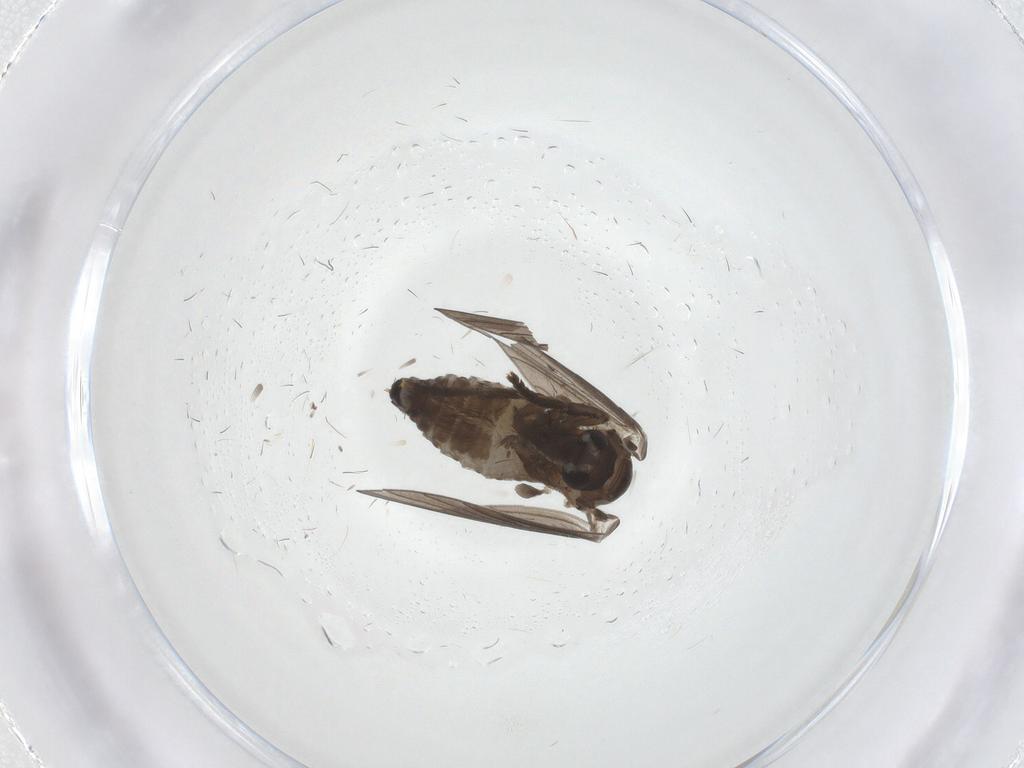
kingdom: Animalia
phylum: Arthropoda
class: Insecta
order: Diptera
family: Psychodidae
